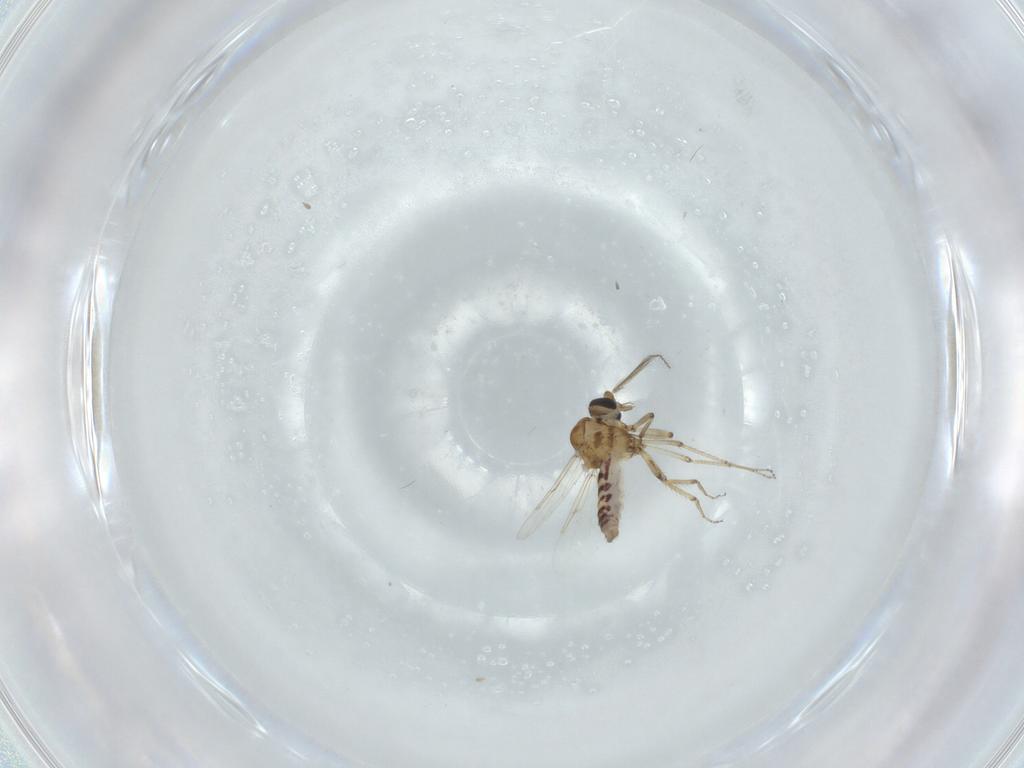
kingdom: Animalia
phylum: Arthropoda
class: Insecta
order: Diptera
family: Ceratopogonidae
